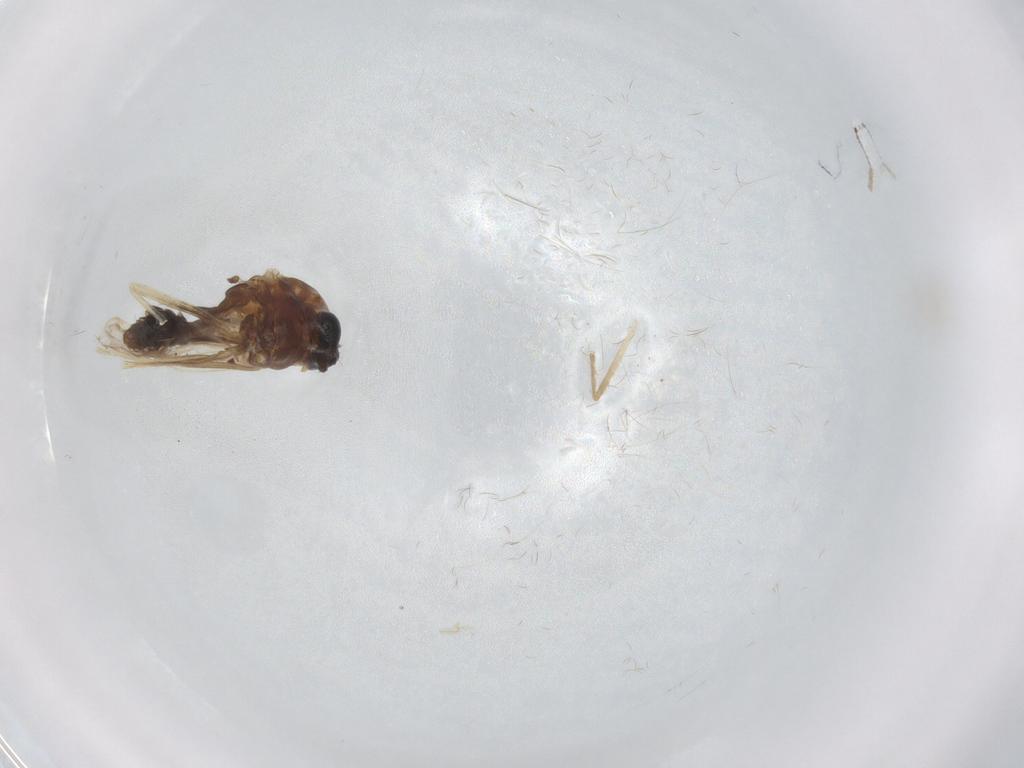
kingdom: Animalia
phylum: Arthropoda
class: Insecta
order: Diptera
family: Chironomidae
